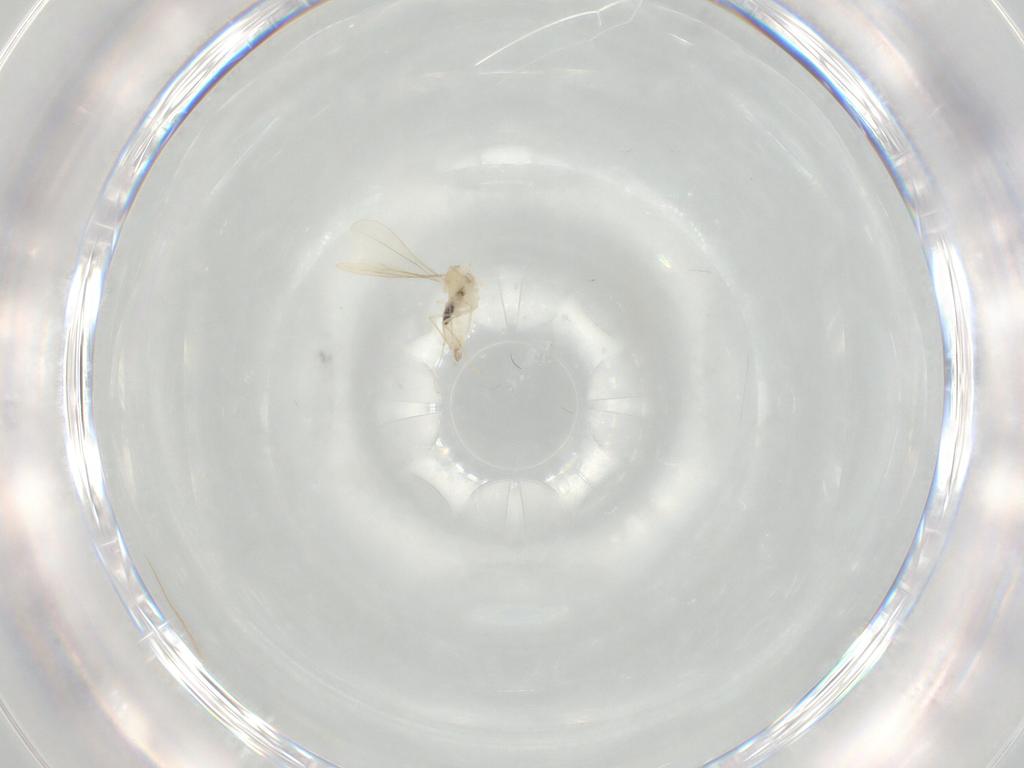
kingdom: Animalia
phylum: Arthropoda
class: Insecta
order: Diptera
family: Cecidomyiidae
